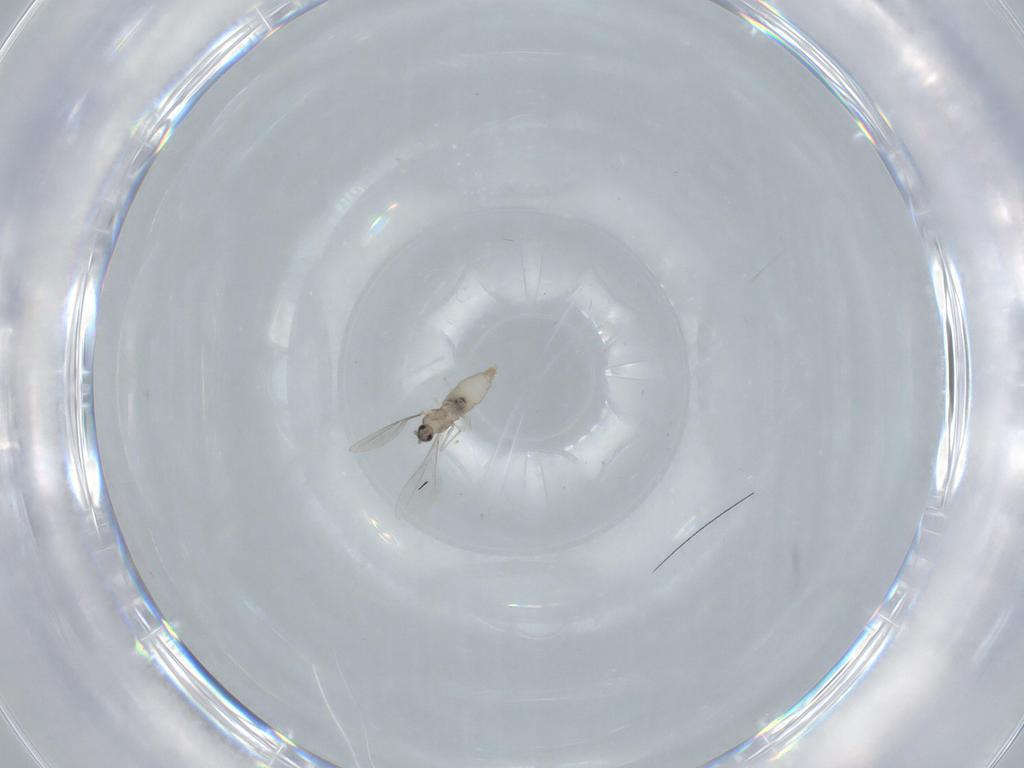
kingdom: Animalia
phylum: Arthropoda
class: Insecta
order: Diptera
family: Cecidomyiidae
